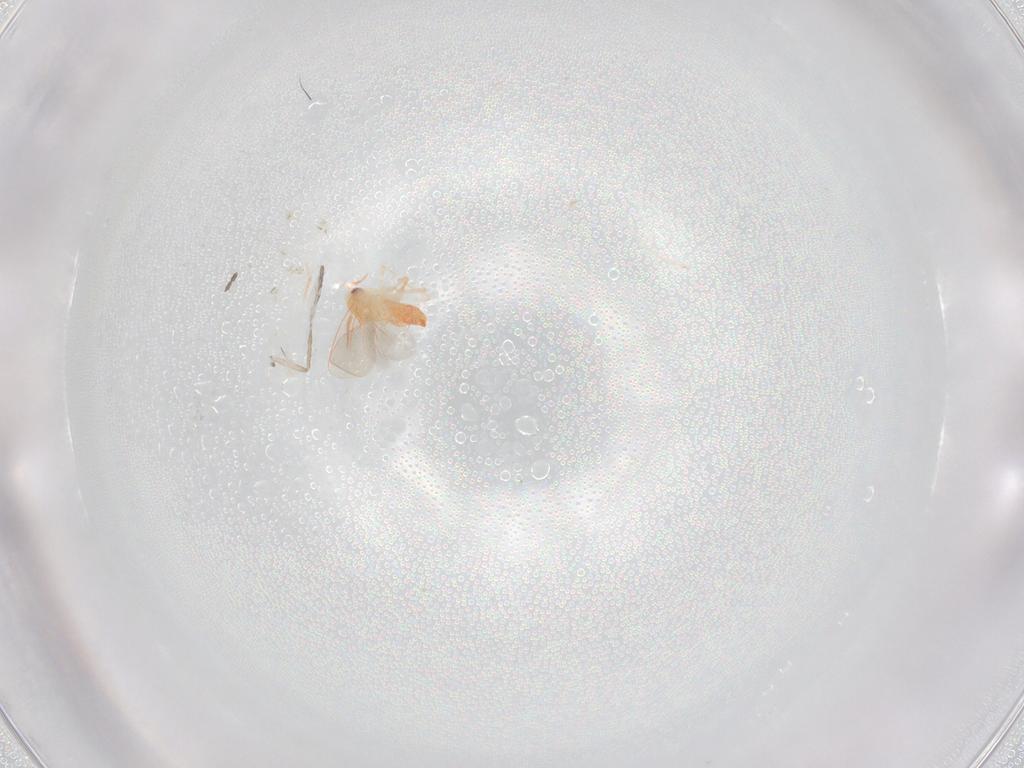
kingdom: Animalia
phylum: Arthropoda
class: Insecta
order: Hemiptera
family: Aleyrodidae
